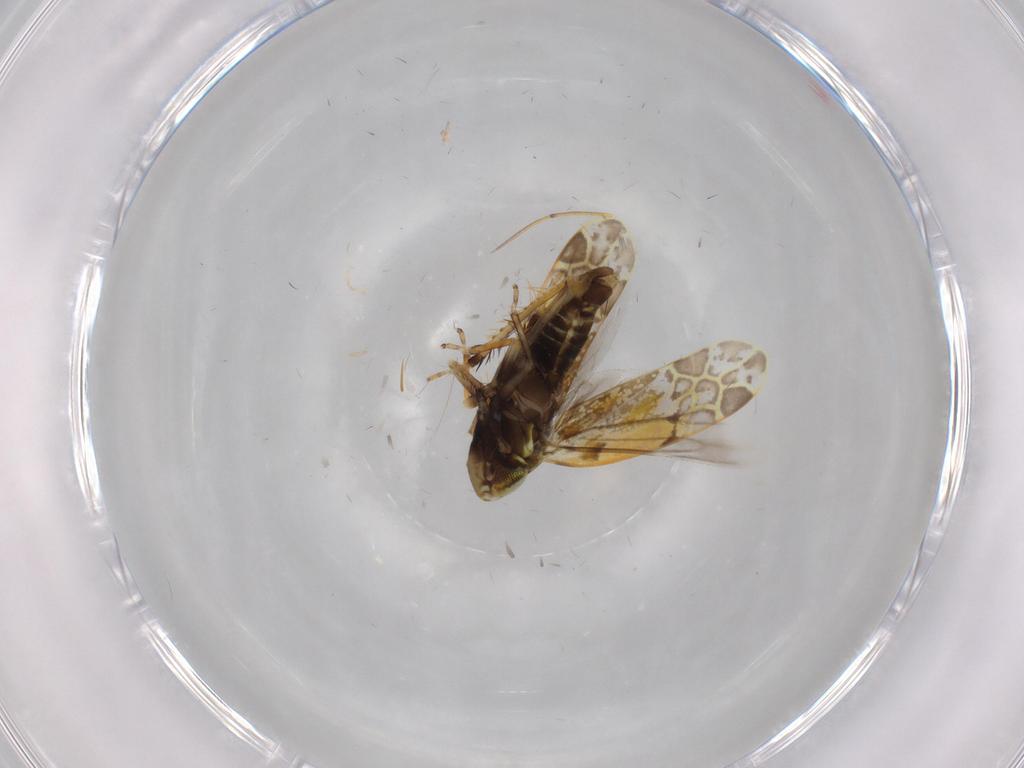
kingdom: Animalia
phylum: Arthropoda
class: Insecta
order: Hemiptera
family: Cicadellidae
